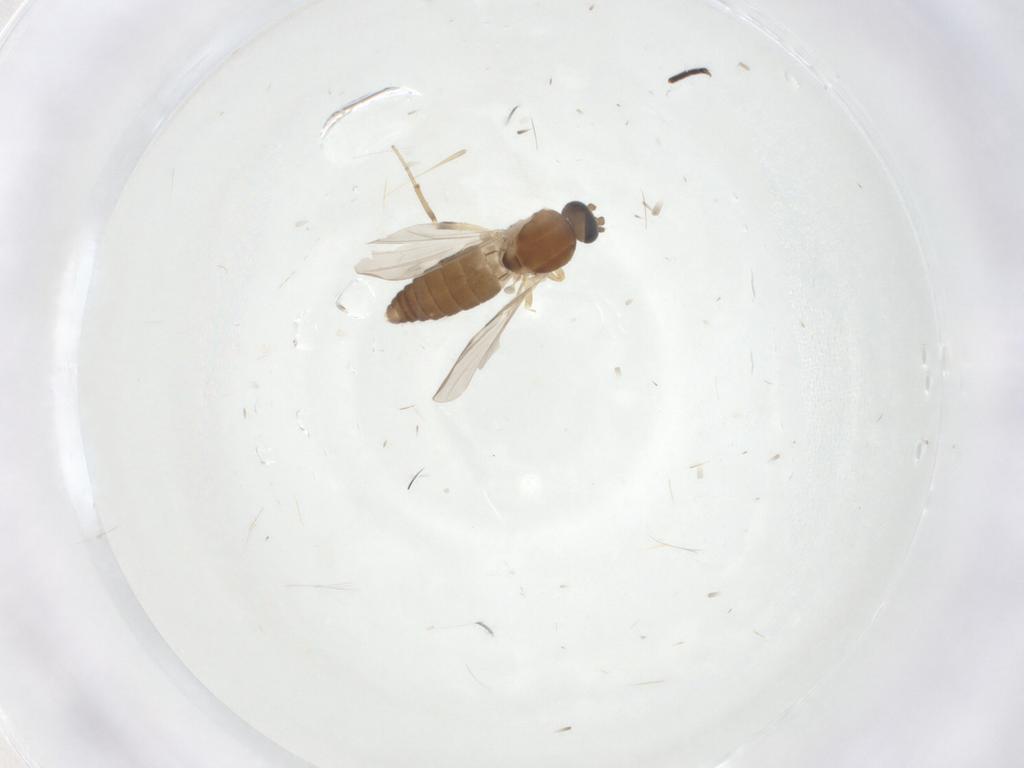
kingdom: Animalia
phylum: Arthropoda
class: Insecta
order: Diptera
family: Ceratopogonidae
